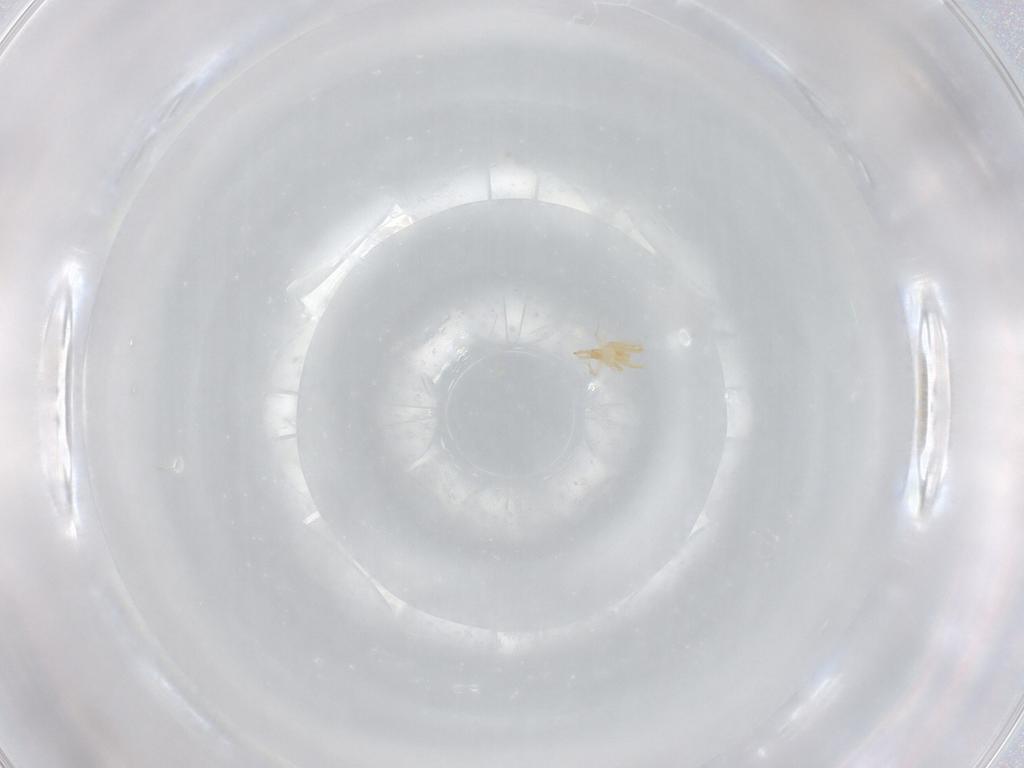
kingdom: Animalia
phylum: Arthropoda
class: Arachnida
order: Trombidiformes
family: Cunaxidae
